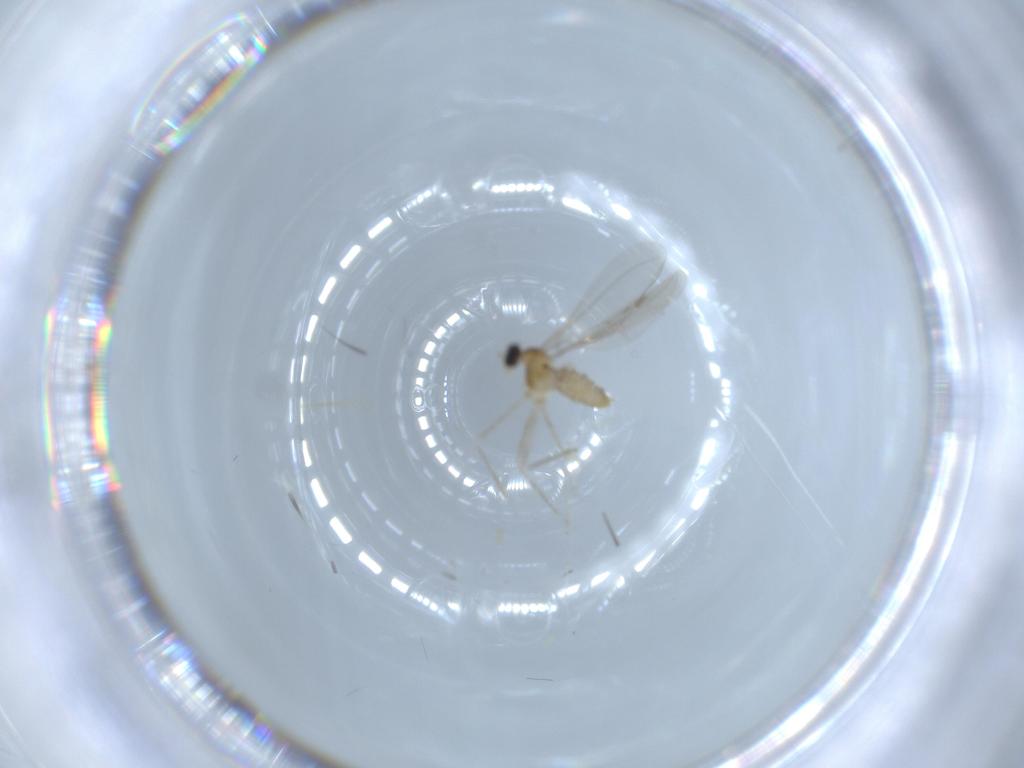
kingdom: Animalia
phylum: Arthropoda
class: Insecta
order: Diptera
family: Cecidomyiidae
